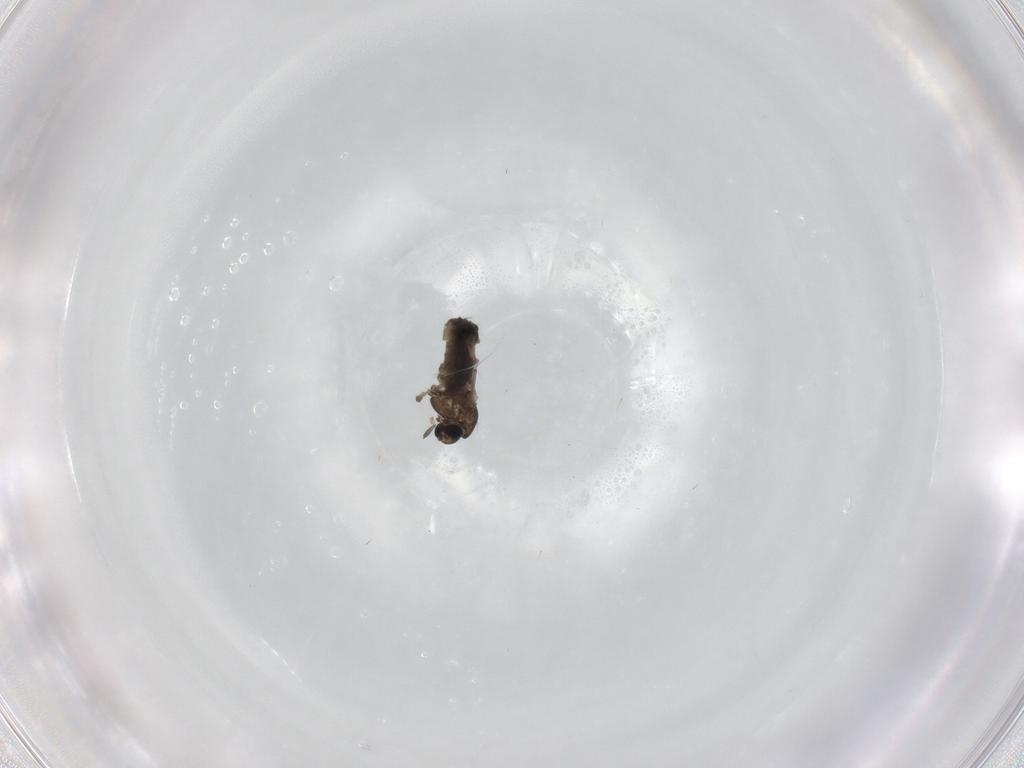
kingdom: Animalia
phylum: Arthropoda
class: Insecta
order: Diptera
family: Chironomidae
